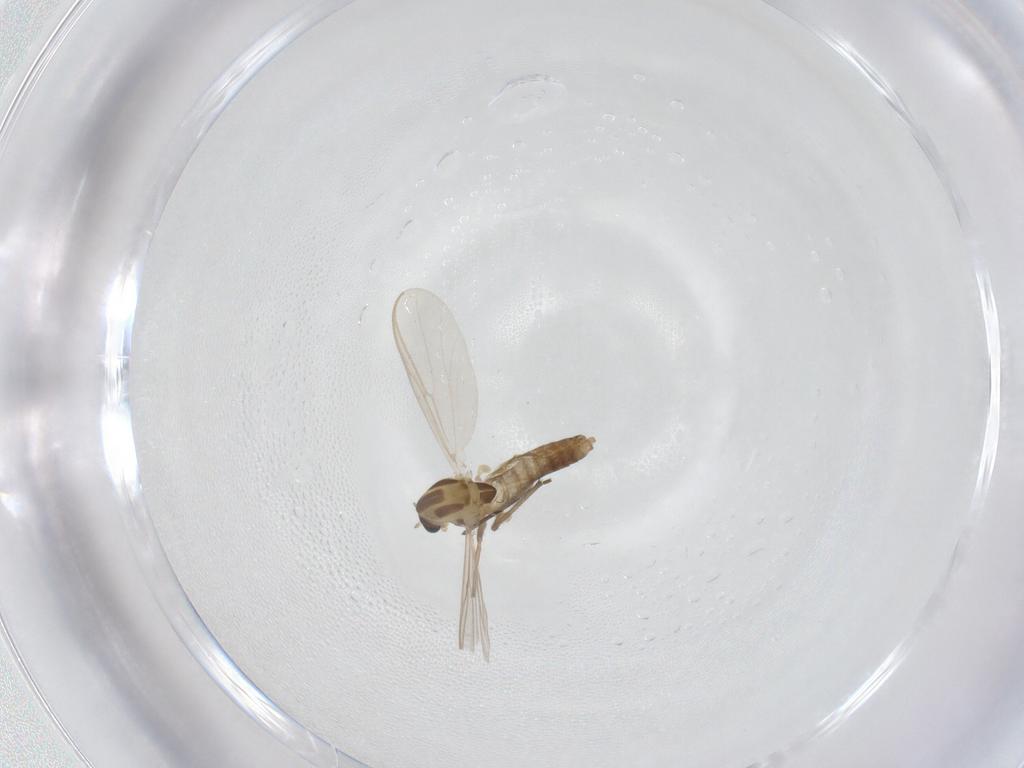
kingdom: Animalia
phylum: Arthropoda
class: Insecta
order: Diptera
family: Chironomidae
